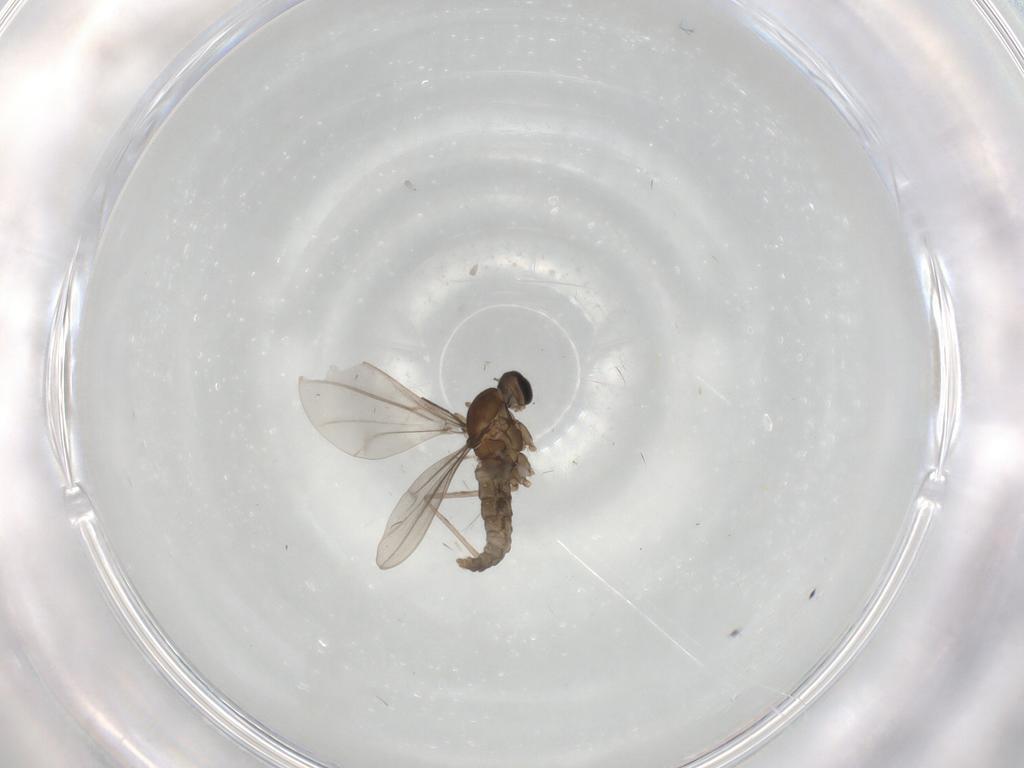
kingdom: Animalia
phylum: Arthropoda
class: Insecta
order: Diptera
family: Cecidomyiidae
